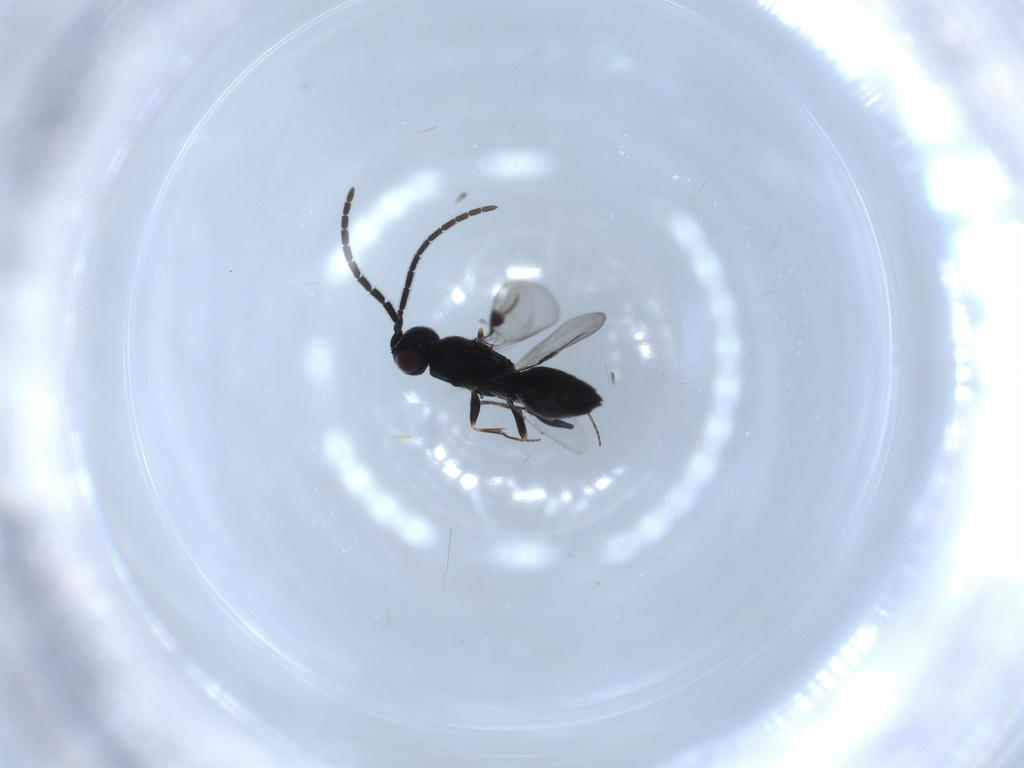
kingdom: Animalia
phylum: Arthropoda
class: Insecta
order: Hymenoptera
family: Megaspilidae
